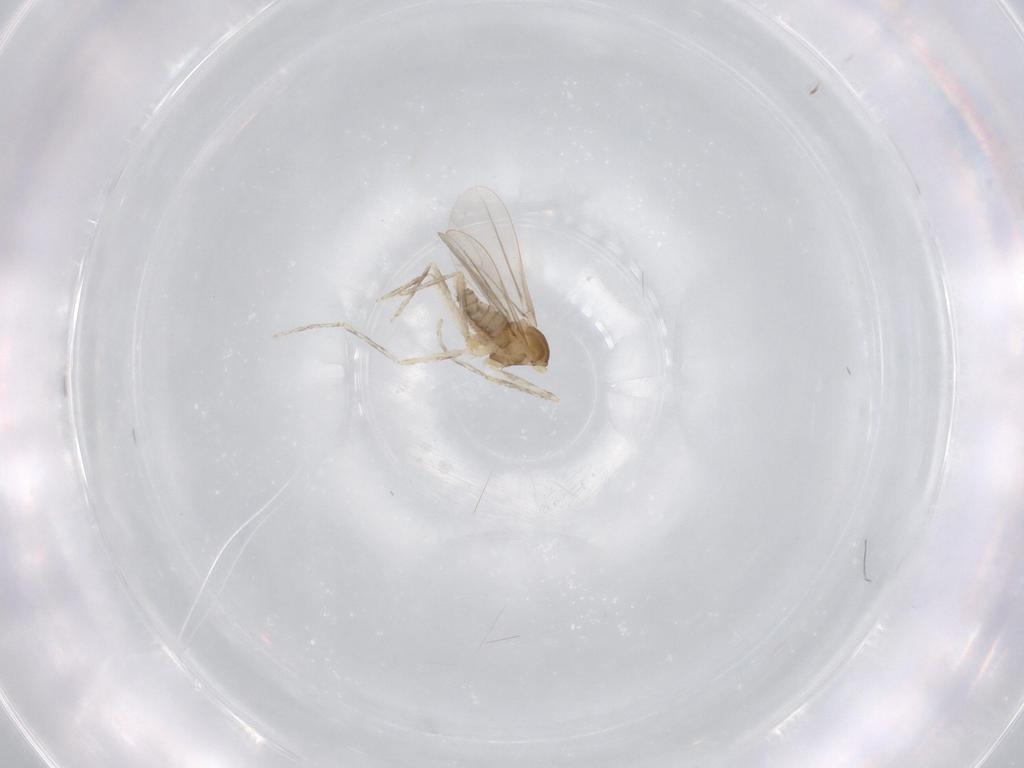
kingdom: Animalia
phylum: Arthropoda
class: Insecta
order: Diptera
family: Cecidomyiidae
